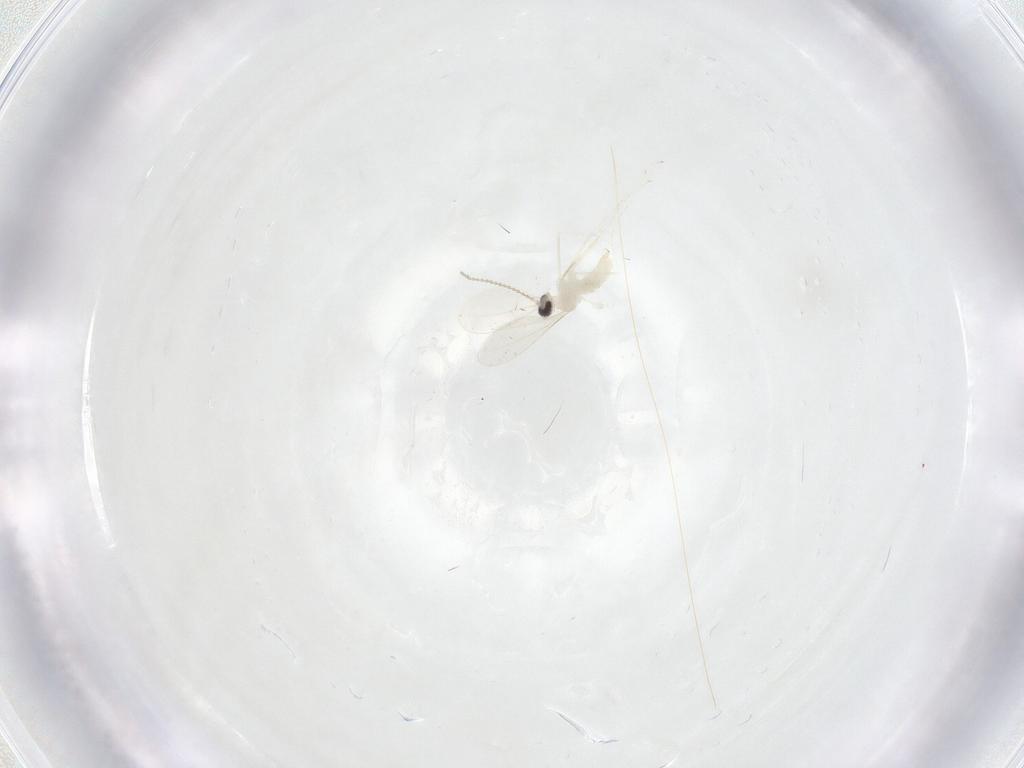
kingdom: Animalia
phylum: Arthropoda
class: Insecta
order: Diptera
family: Cecidomyiidae
